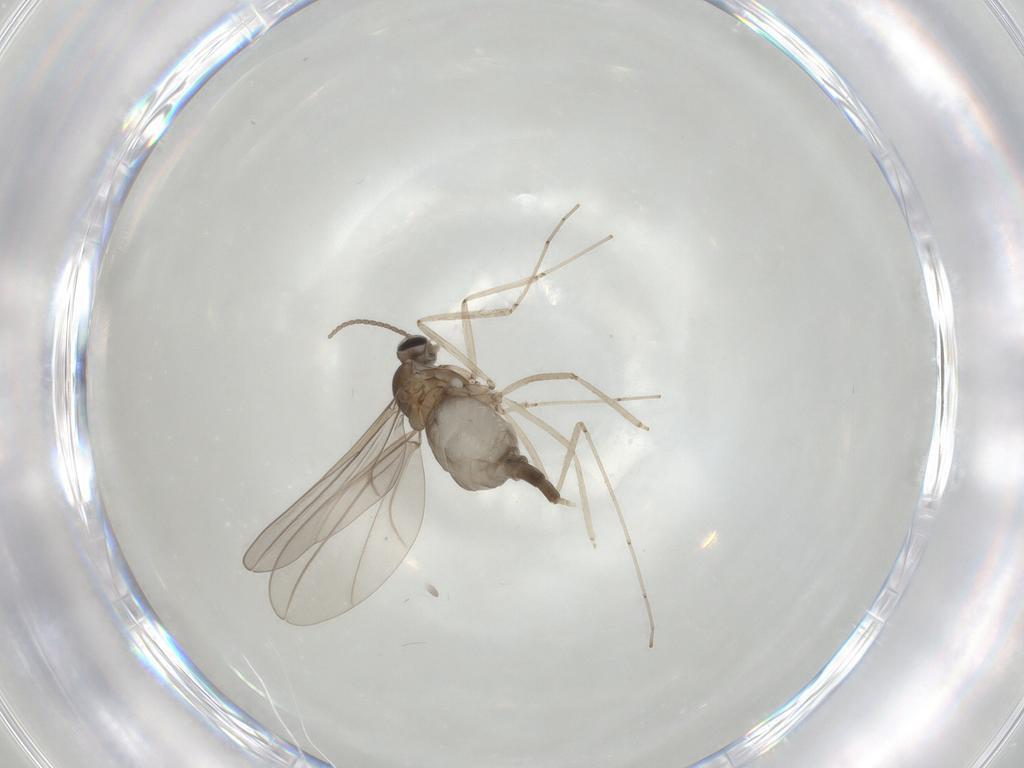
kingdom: Animalia
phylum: Arthropoda
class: Insecta
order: Diptera
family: Cecidomyiidae
